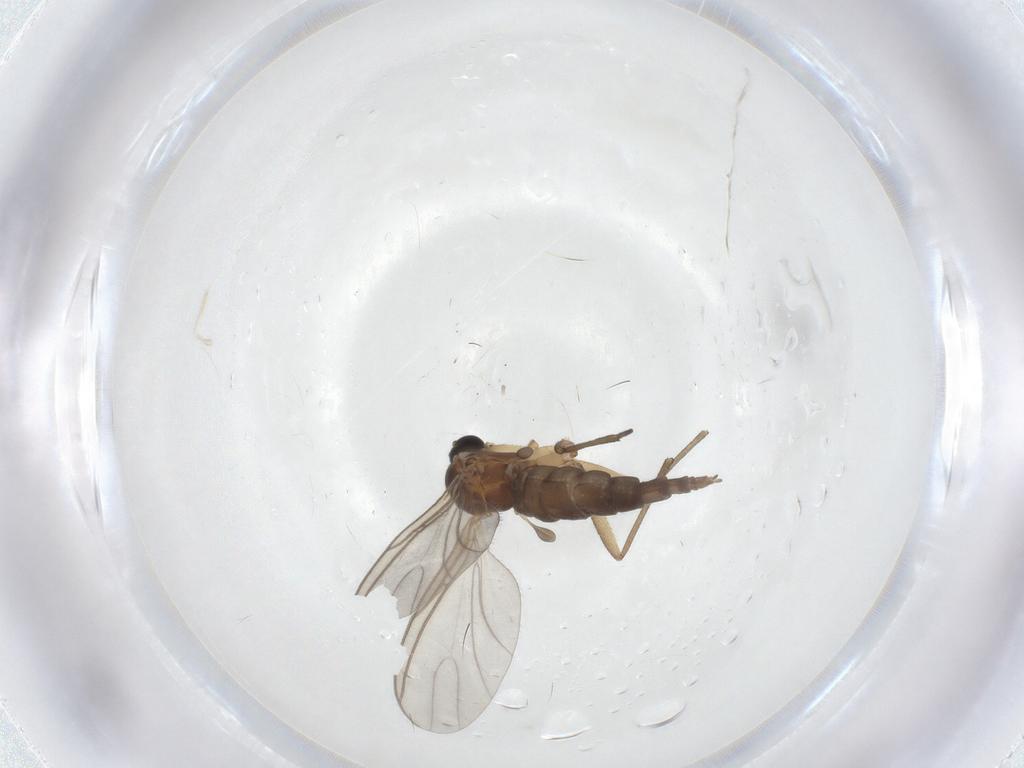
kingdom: Animalia
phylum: Arthropoda
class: Insecta
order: Diptera
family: Sciaridae
